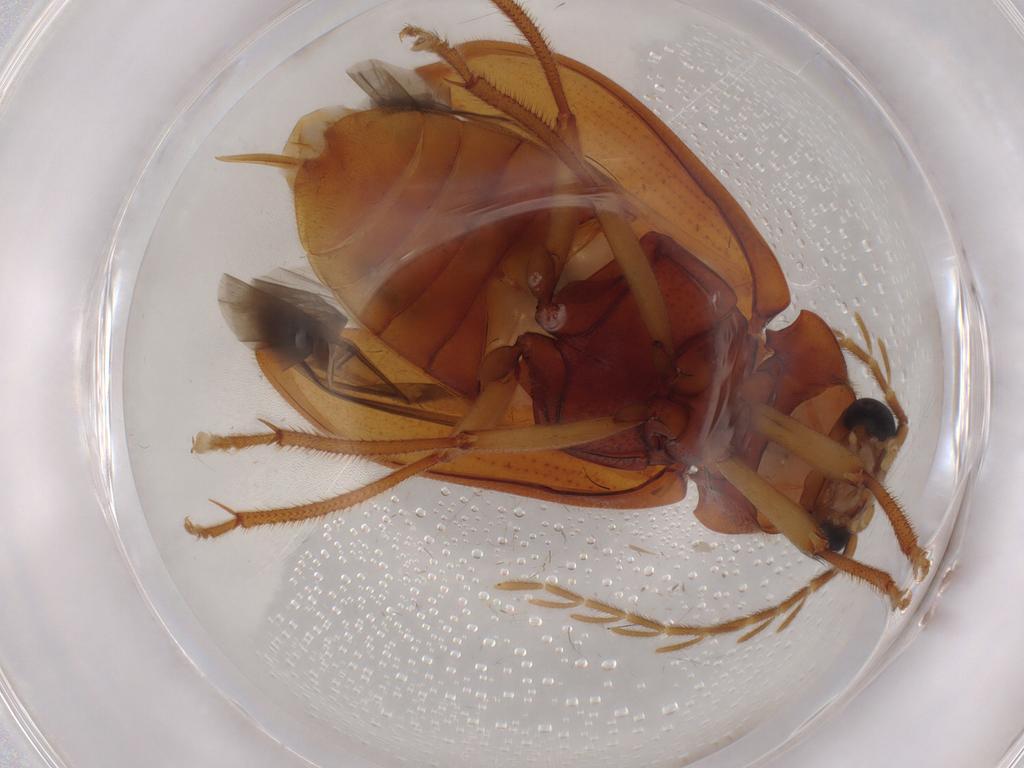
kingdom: Animalia
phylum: Arthropoda
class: Insecta
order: Coleoptera
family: Ptilodactylidae
